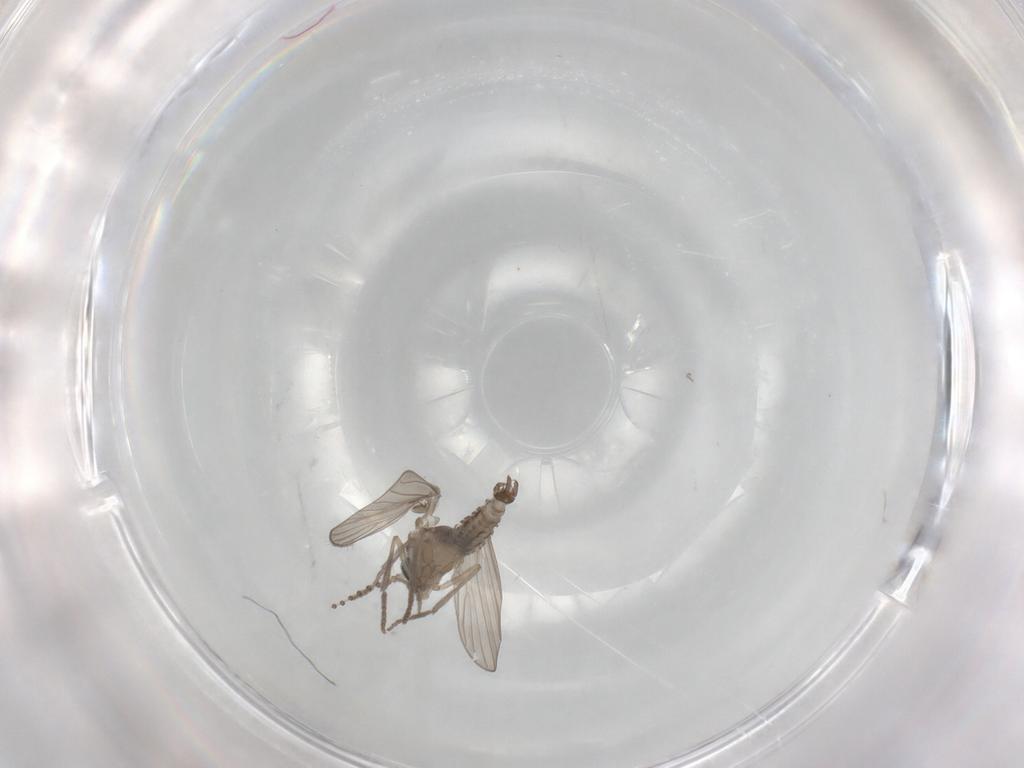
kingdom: Animalia
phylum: Arthropoda
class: Insecta
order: Diptera
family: Psychodidae
